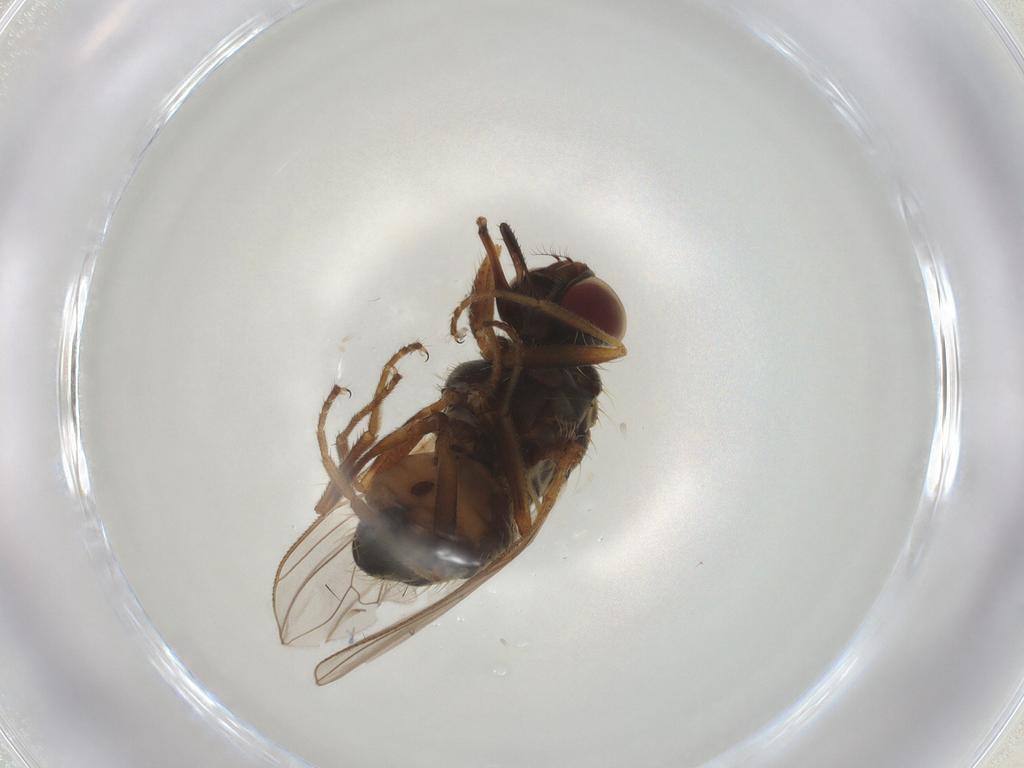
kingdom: Animalia
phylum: Arthropoda
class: Insecta
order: Diptera
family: Muscidae
